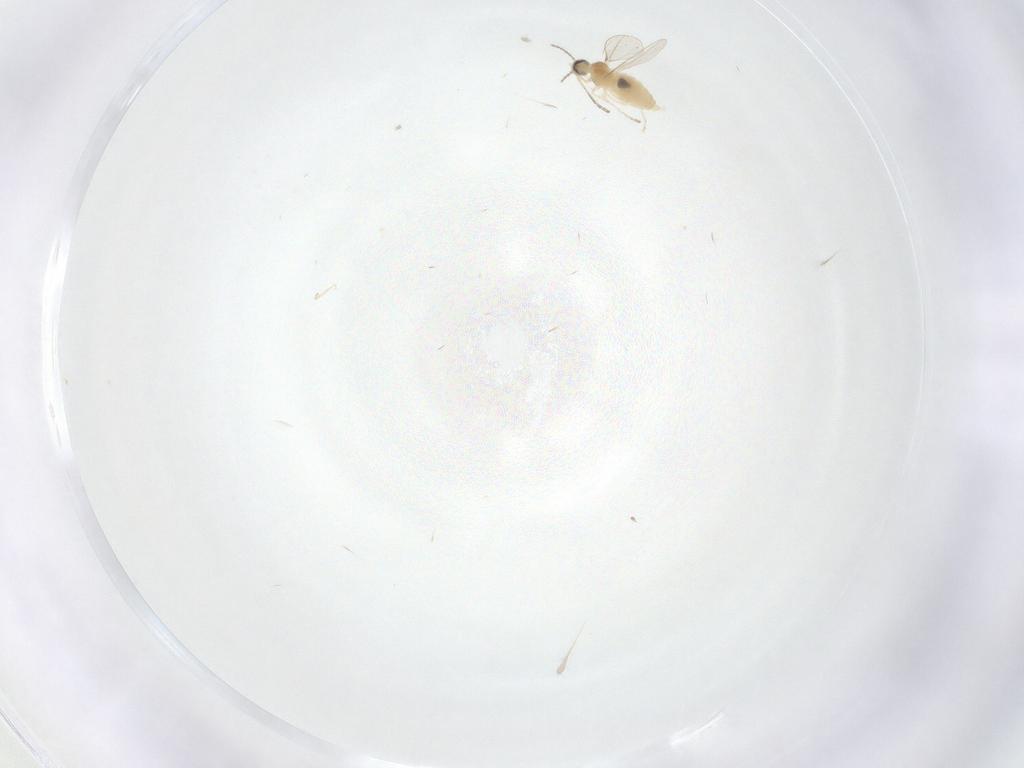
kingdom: Animalia
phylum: Arthropoda
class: Insecta
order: Diptera
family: Cecidomyiidae
